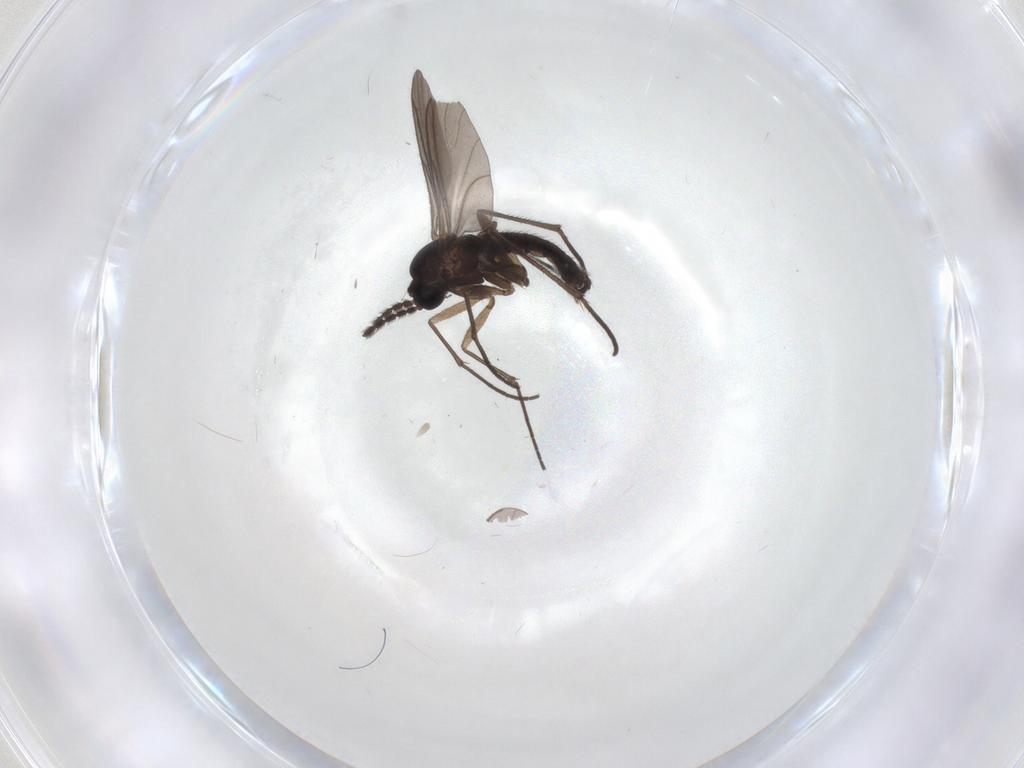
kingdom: Animalia
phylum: Arthropoda
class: Insecta
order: Diptera
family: Sciaridae
